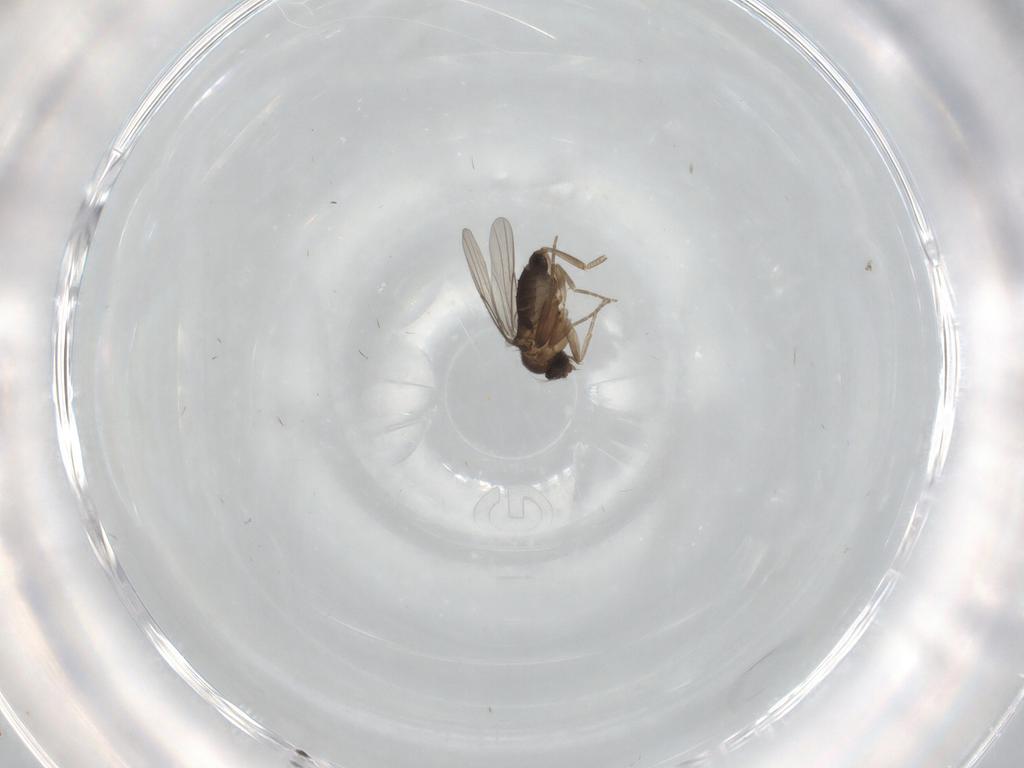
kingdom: Animalia
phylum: Arthropoda
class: Insecta
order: Diptera
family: Phoridae
